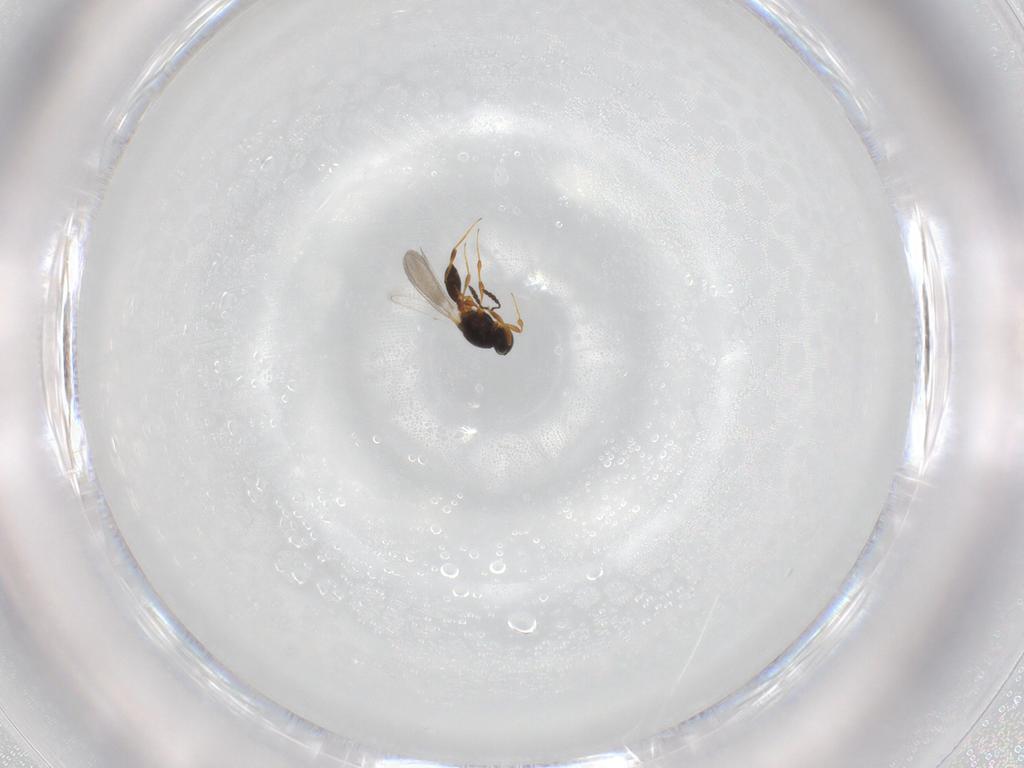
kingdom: Animalia
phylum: Arthropoda
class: Insecta
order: Hymenoptera
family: Platygastridae
